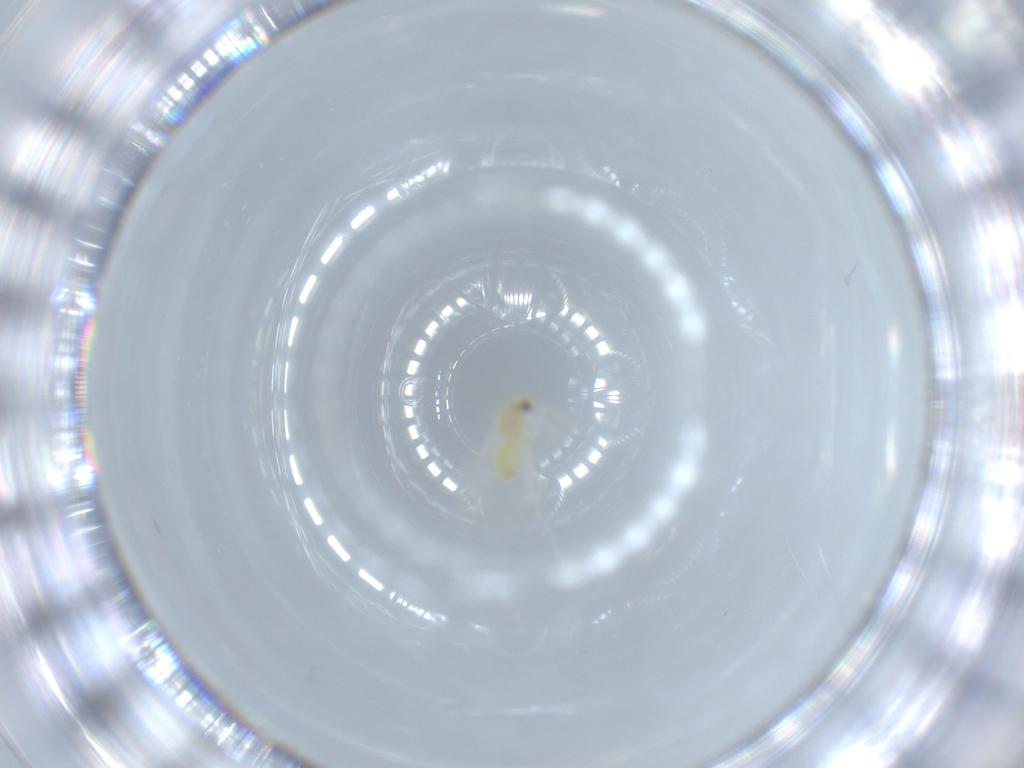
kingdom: Animalia
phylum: Arthropoda
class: Insecta
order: Hemiptera
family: Aleyrodidae
